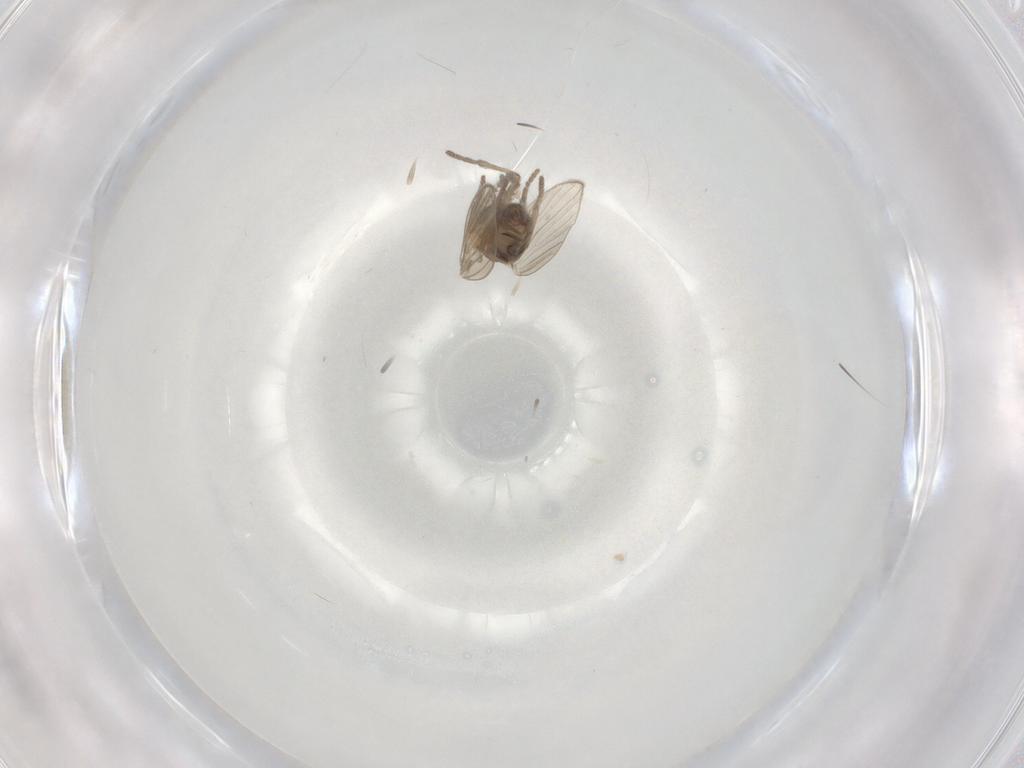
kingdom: Animalia
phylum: Arthropoda
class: Insecta
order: Diptera
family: Psychodidae
